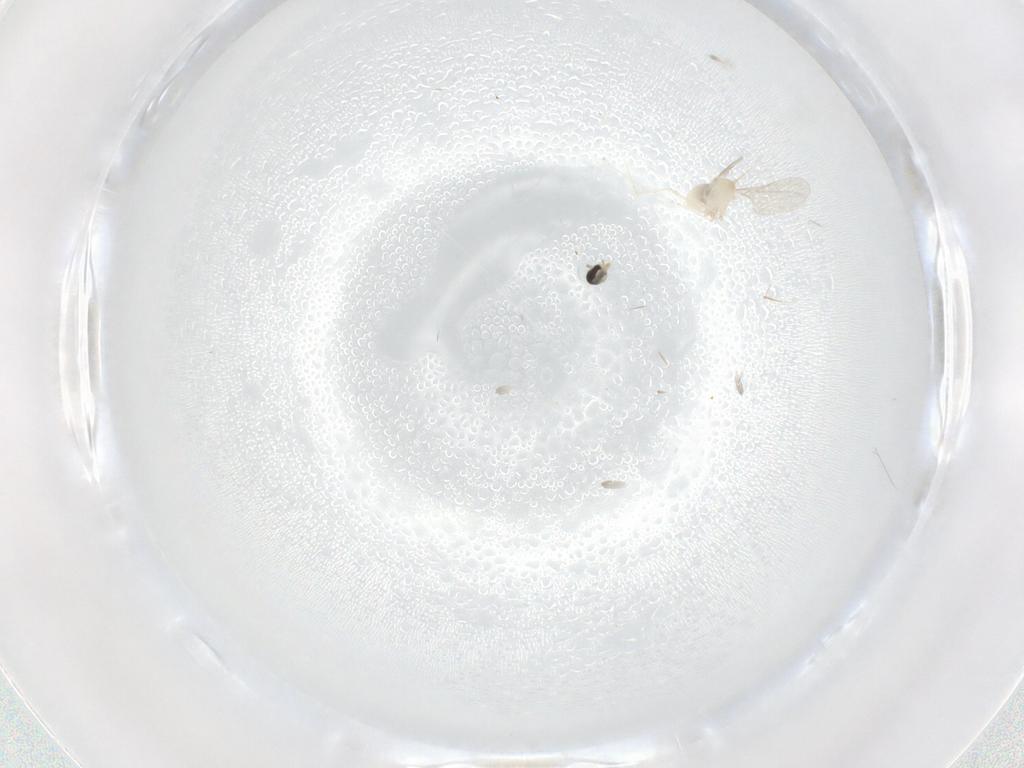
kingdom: Animalia
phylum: Arthropoda
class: Insecta
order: Diptera
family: Cecidomyiidae
